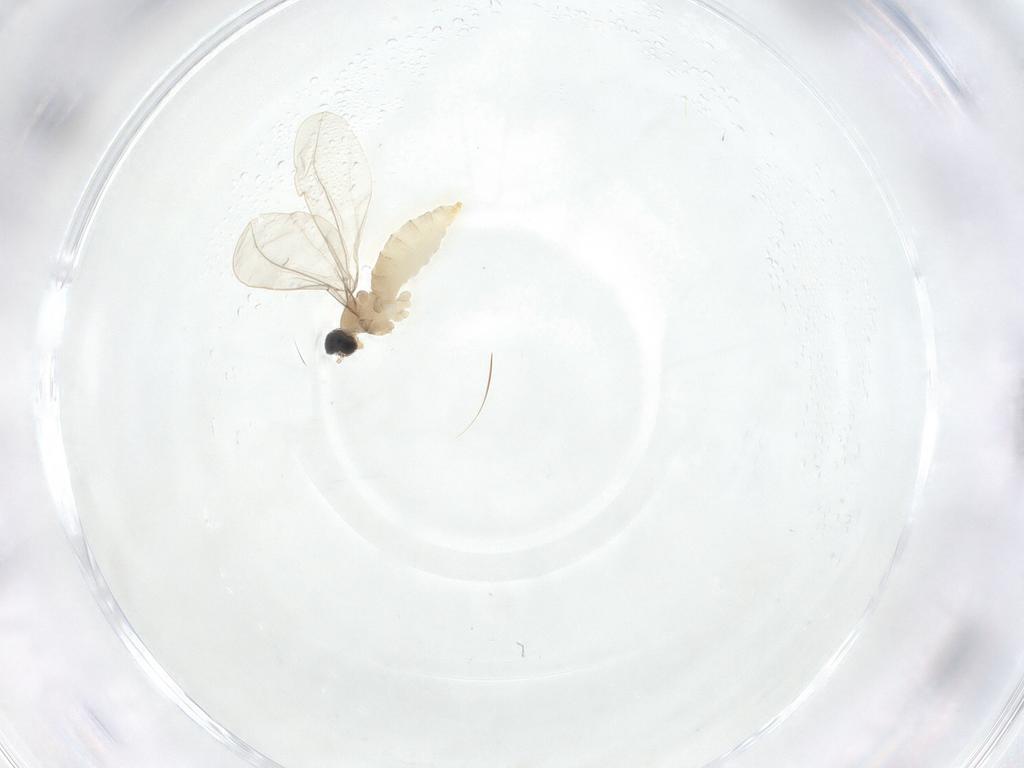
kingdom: Animalia
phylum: Arthropoda
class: Insecta
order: Diptera
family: Cecidomyiidae
